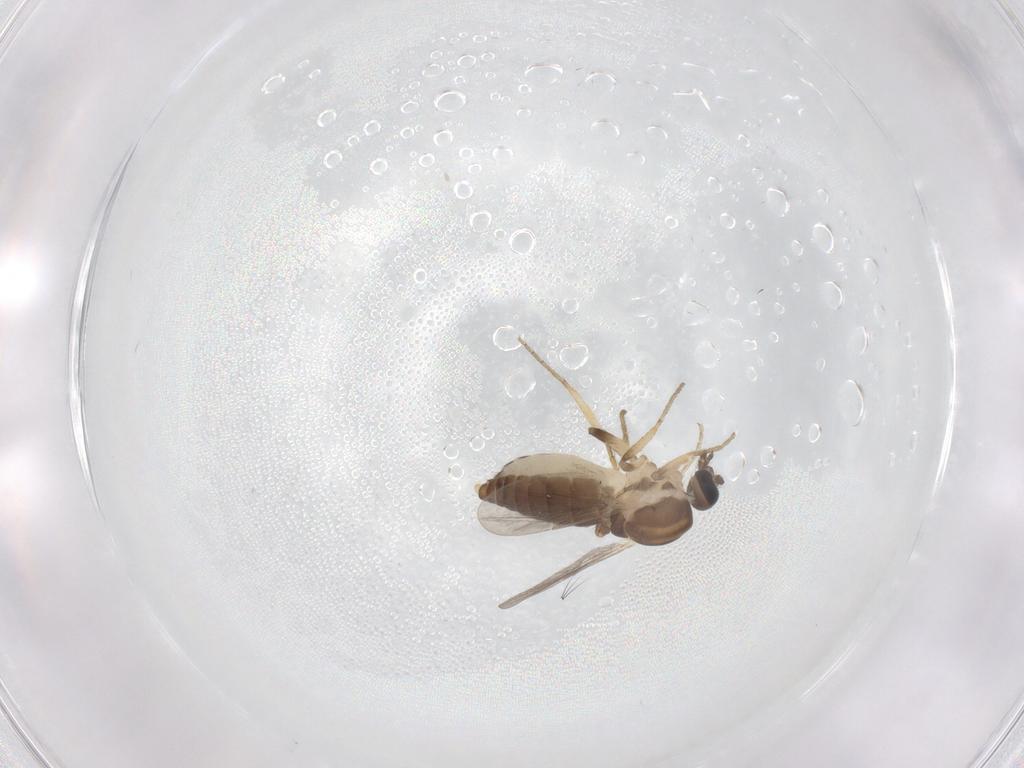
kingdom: Animalia
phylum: Arthropoda
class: Insecta
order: Diptera
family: Ceratopogonidae
